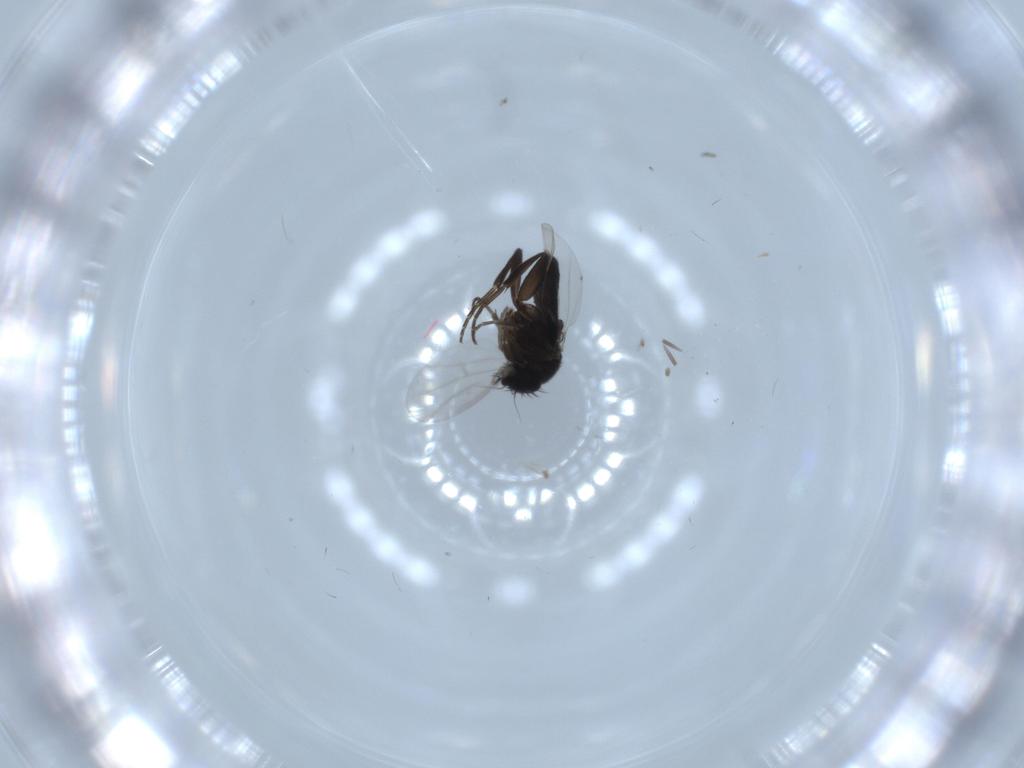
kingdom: Animalia
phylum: Arthropoda
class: Insecta
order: Diptera
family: Phoridae
